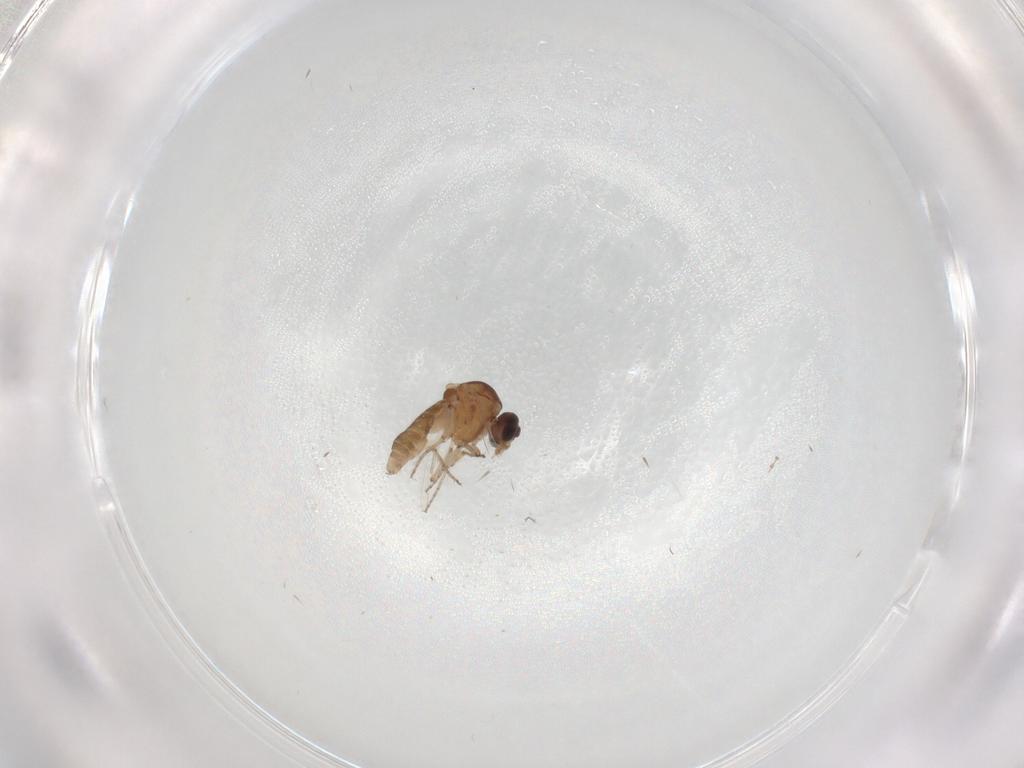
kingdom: Animalia
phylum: Arthropoda
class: Insecta
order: Diptera
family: Ceratopogonidae
